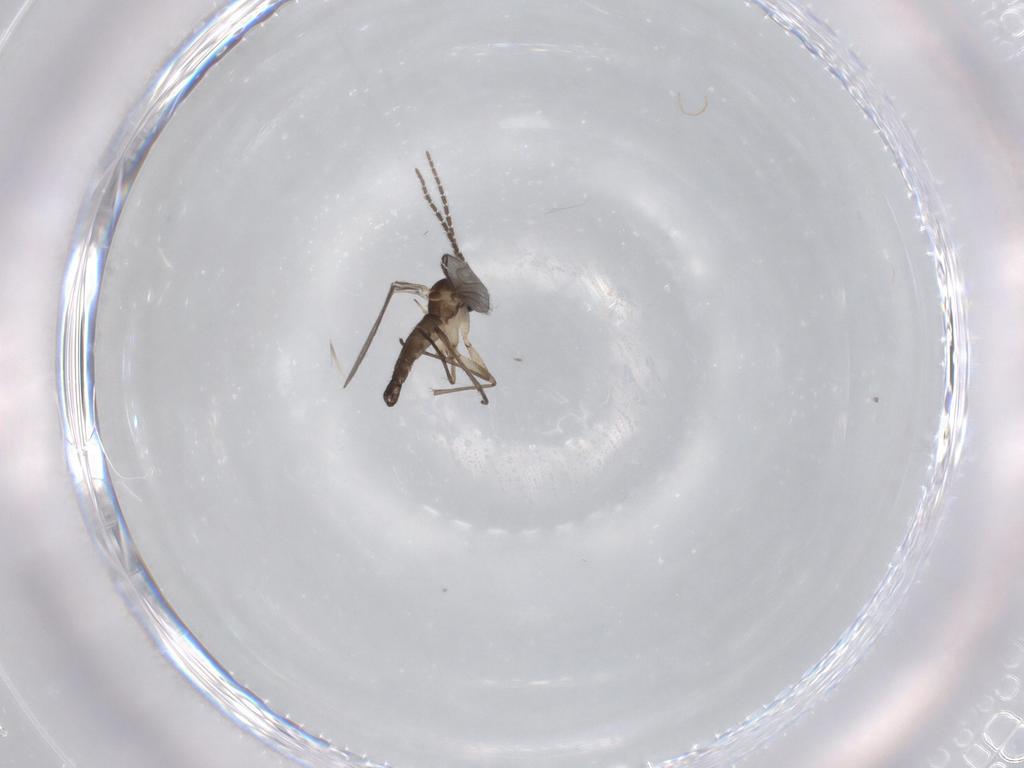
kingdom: Animalia
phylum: Arthropoda
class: Insecta
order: Diptera
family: Sciaridae
